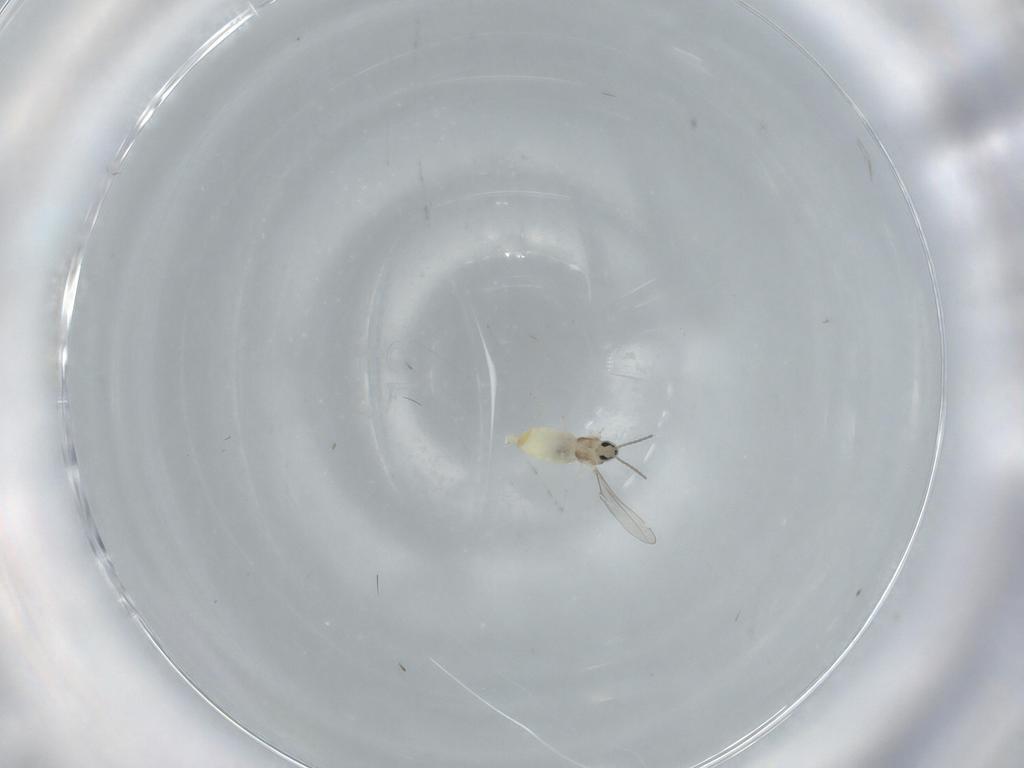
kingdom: Animalia
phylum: Arthropoda
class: Insecta
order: Diptera
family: Cecidomyiidae
